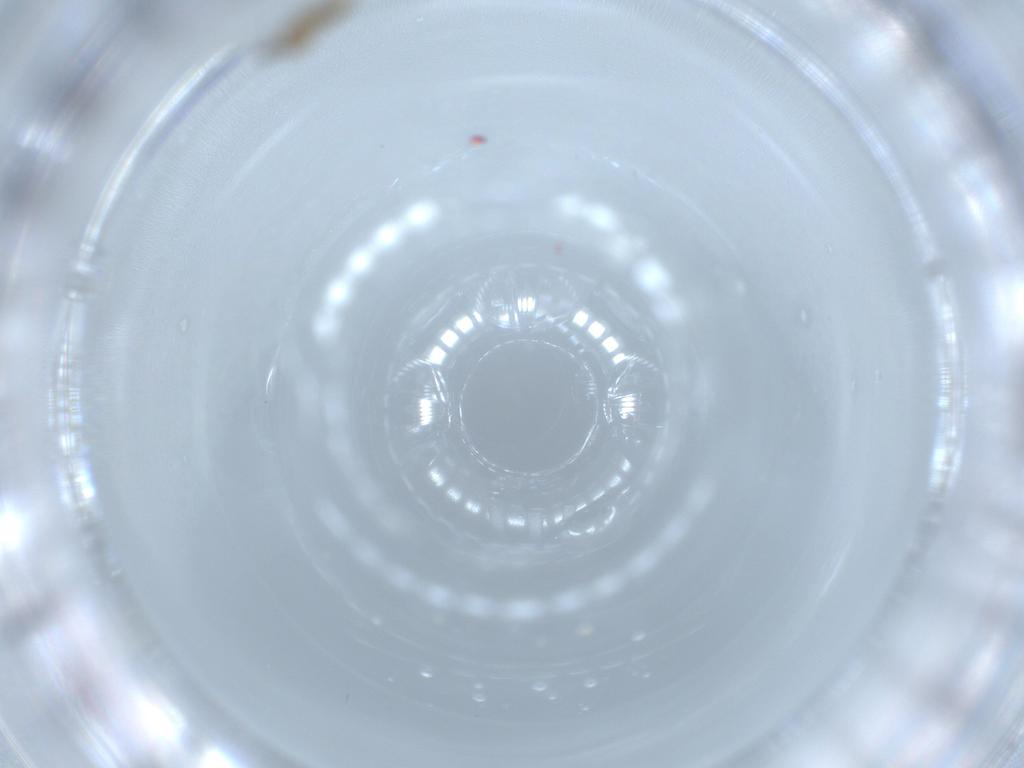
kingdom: Animalia
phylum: Arthropoda
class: Insecta
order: Diptera
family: Cecidomyiidae
